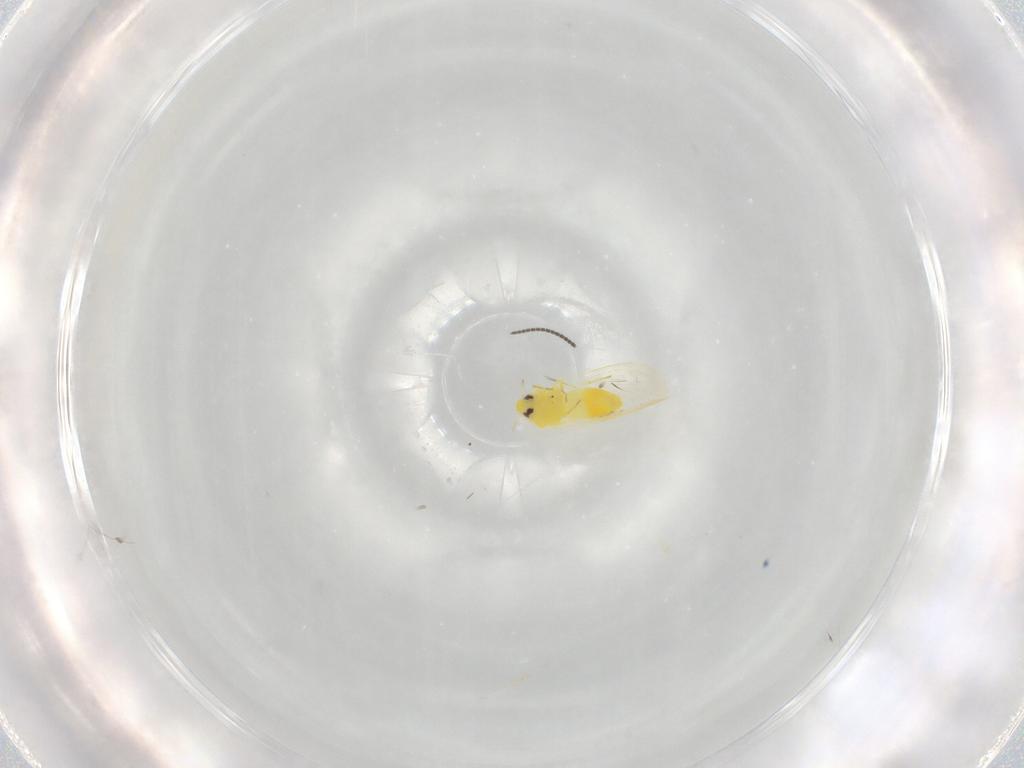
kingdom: Animalia
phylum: Arthropoda
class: Insecta
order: Hemiptera
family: Aleyrodidae
